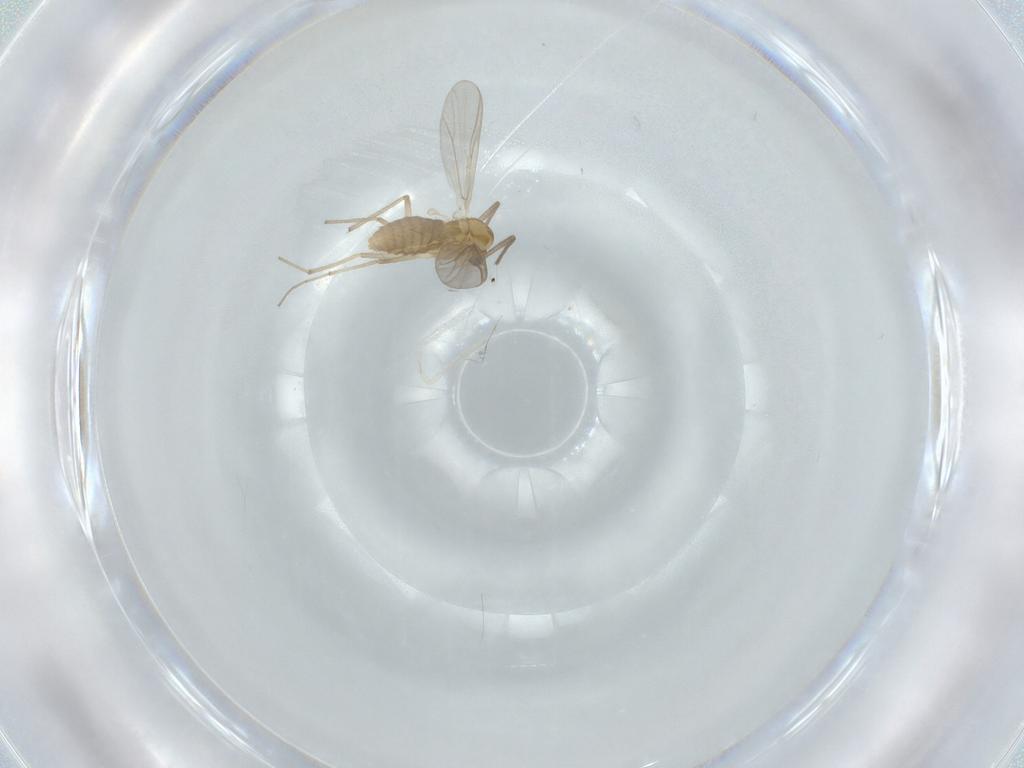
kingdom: Animalia
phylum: Arthropoda
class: Insecta
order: Diptera
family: Chironomidae
